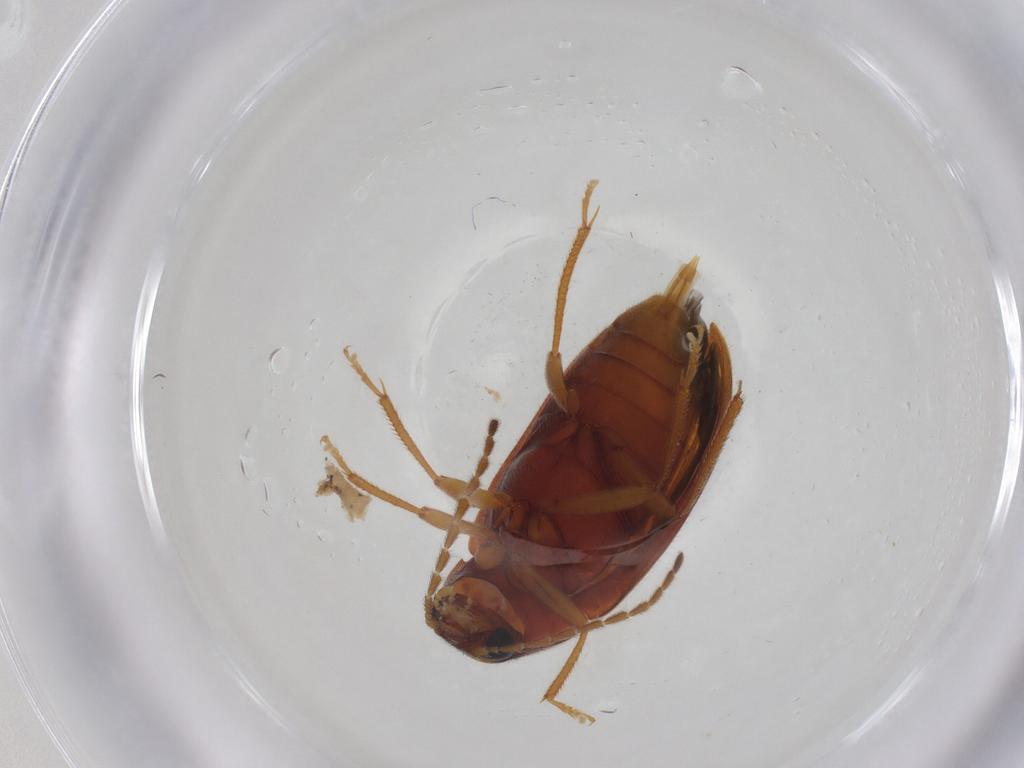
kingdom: Animalia
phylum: Arthropoda
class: Insecta
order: Coleoptera
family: Ptilodactylidae
